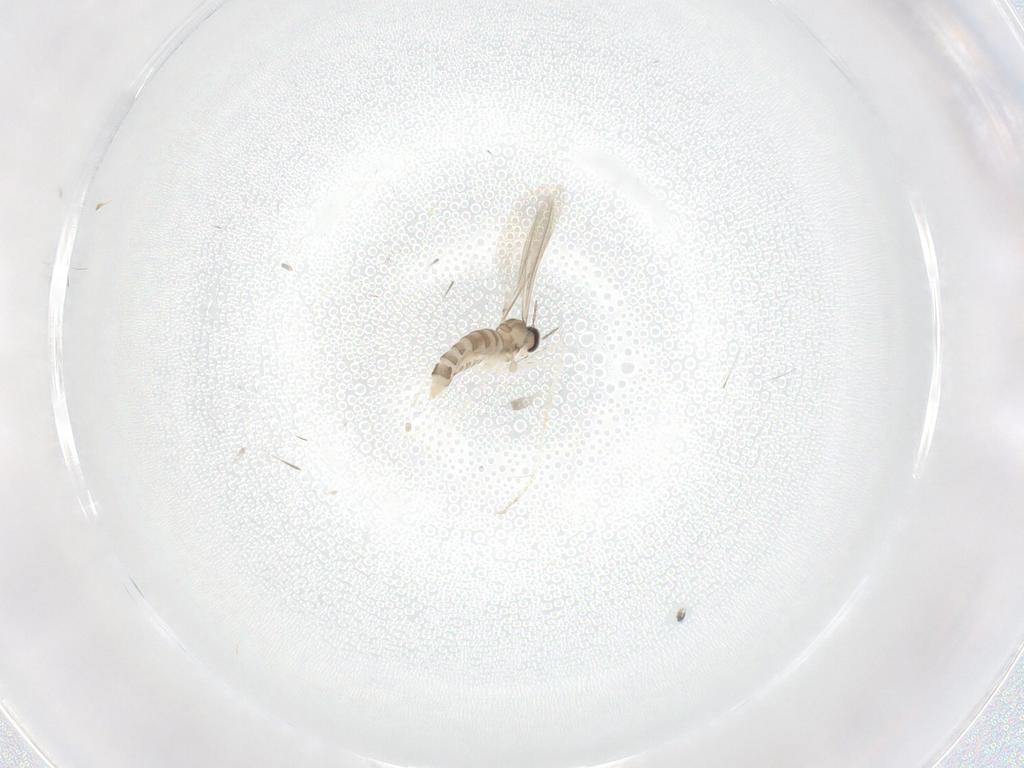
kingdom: Animalia
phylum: Arthropoda
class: Insecta
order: Diptera
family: Cecidomyiidae
